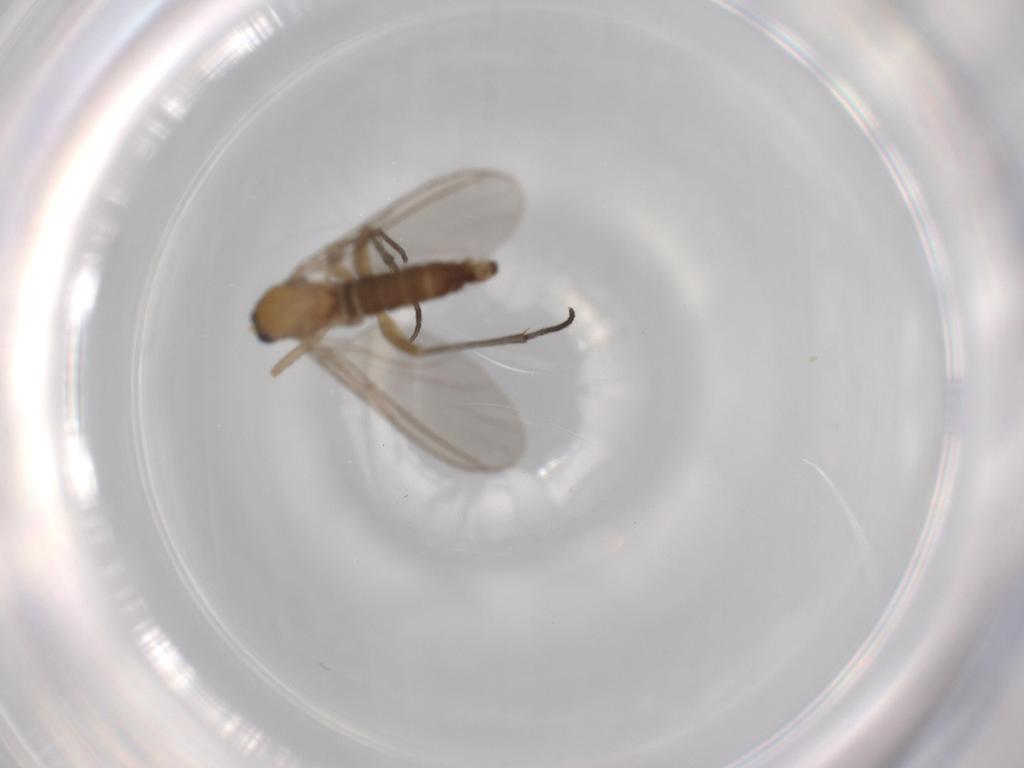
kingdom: Animalia
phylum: Arthropoda
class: Insecta
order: Diptera
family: Sciaridae
